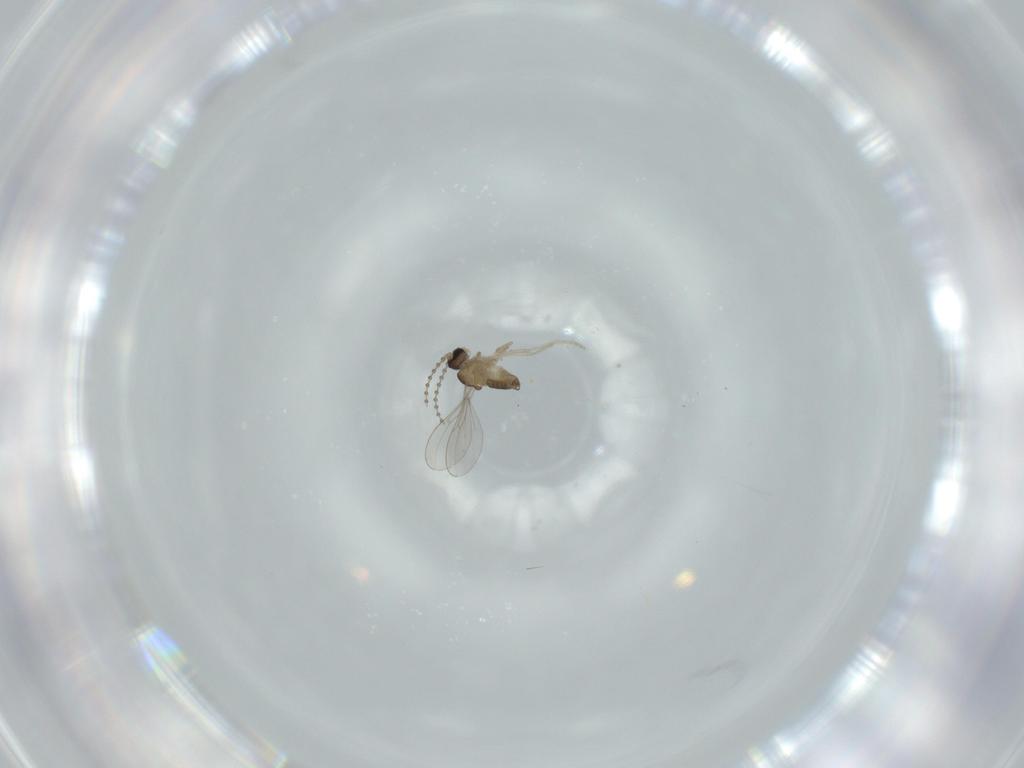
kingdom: Animalia
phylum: Arthropoda
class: Insecta
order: Diptera
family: Cecidomyiidae
